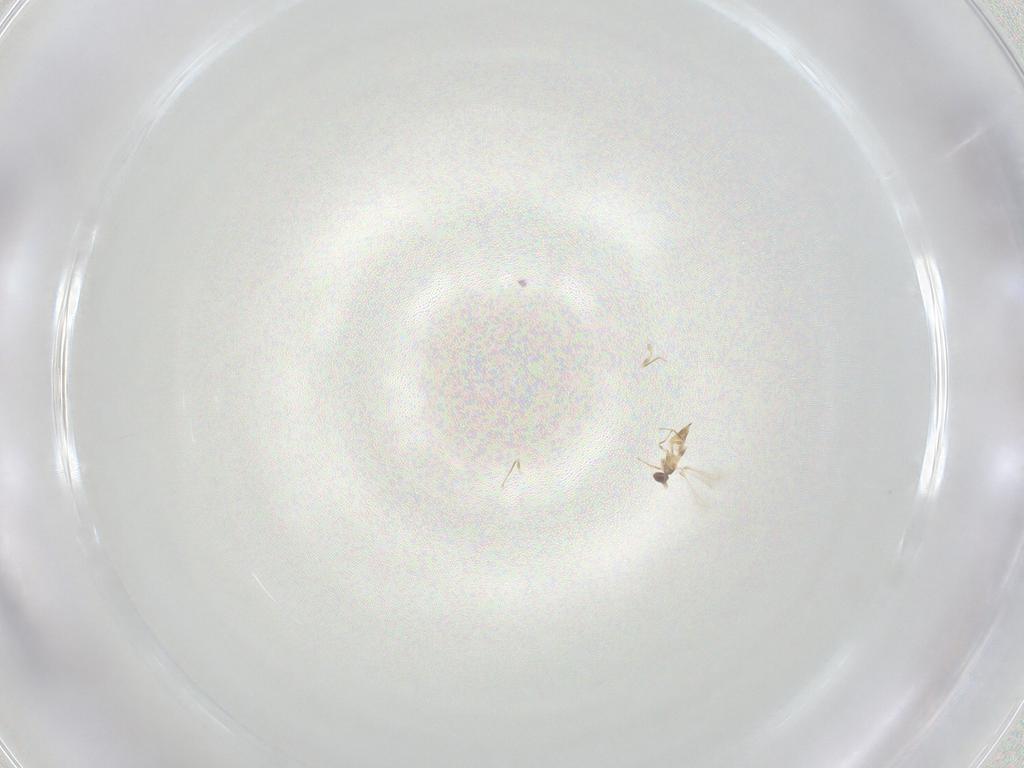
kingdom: Animalia
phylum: Arthropoda
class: Insecta
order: Hymenoptera
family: Mymaridae
